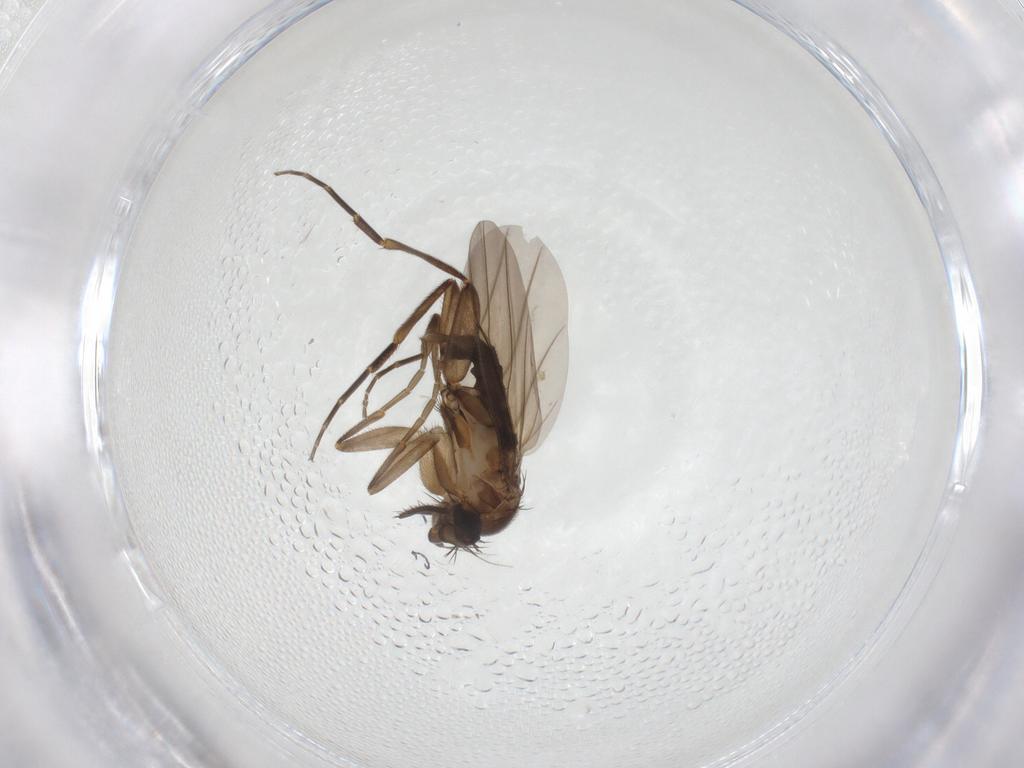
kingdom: Animalia
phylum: Arthropoda
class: Insecta
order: Diptera
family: Phoridae
